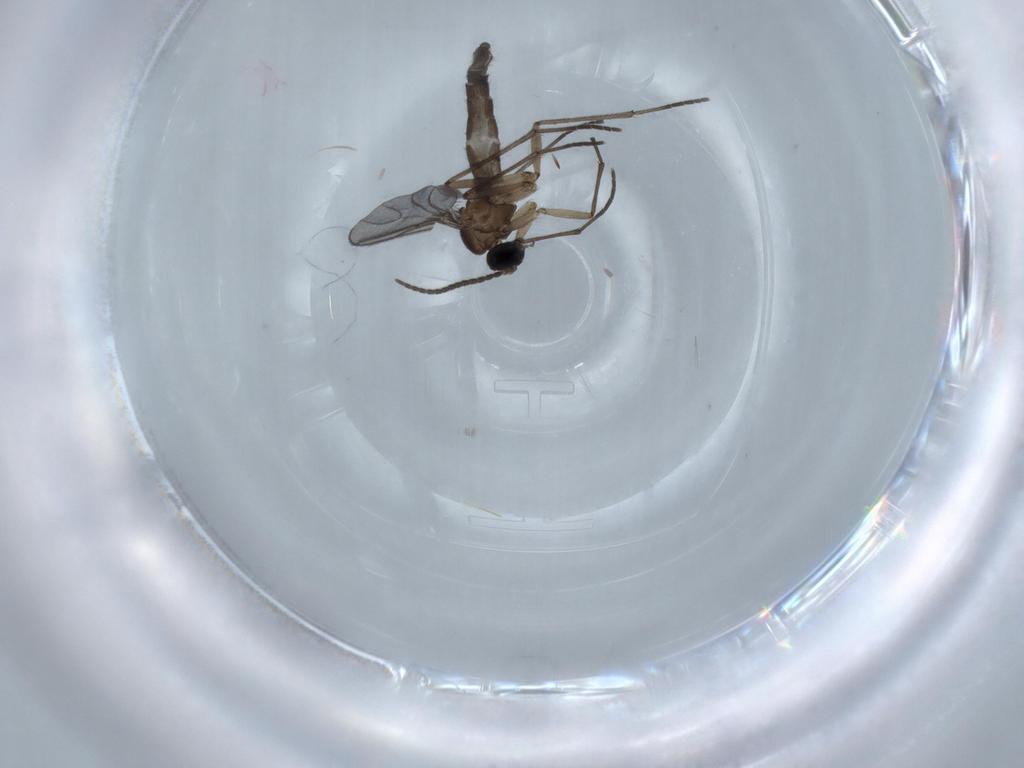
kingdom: Animalia
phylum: Arthropoda
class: Insecta
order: Diptera
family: Sciaridae
